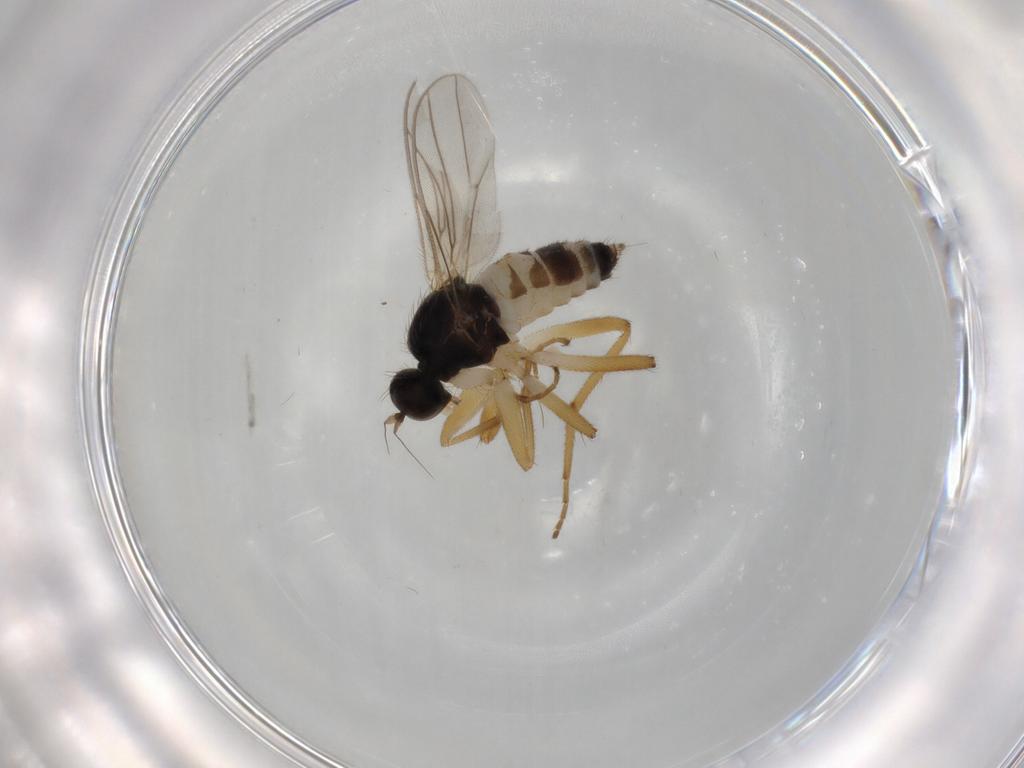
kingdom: Animalia
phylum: Arthropoda
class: Insecta
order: Diptera
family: Hybotidae
